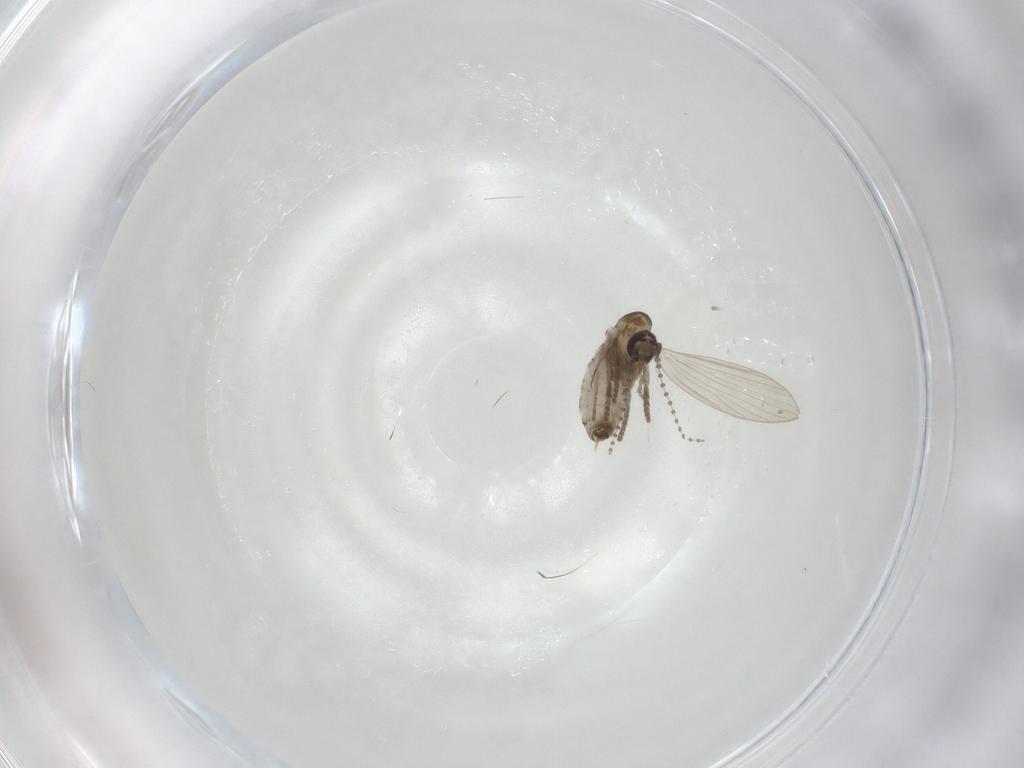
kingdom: Animalia
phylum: Arthropoda
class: Insecta
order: Diptera
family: Psychodidae
